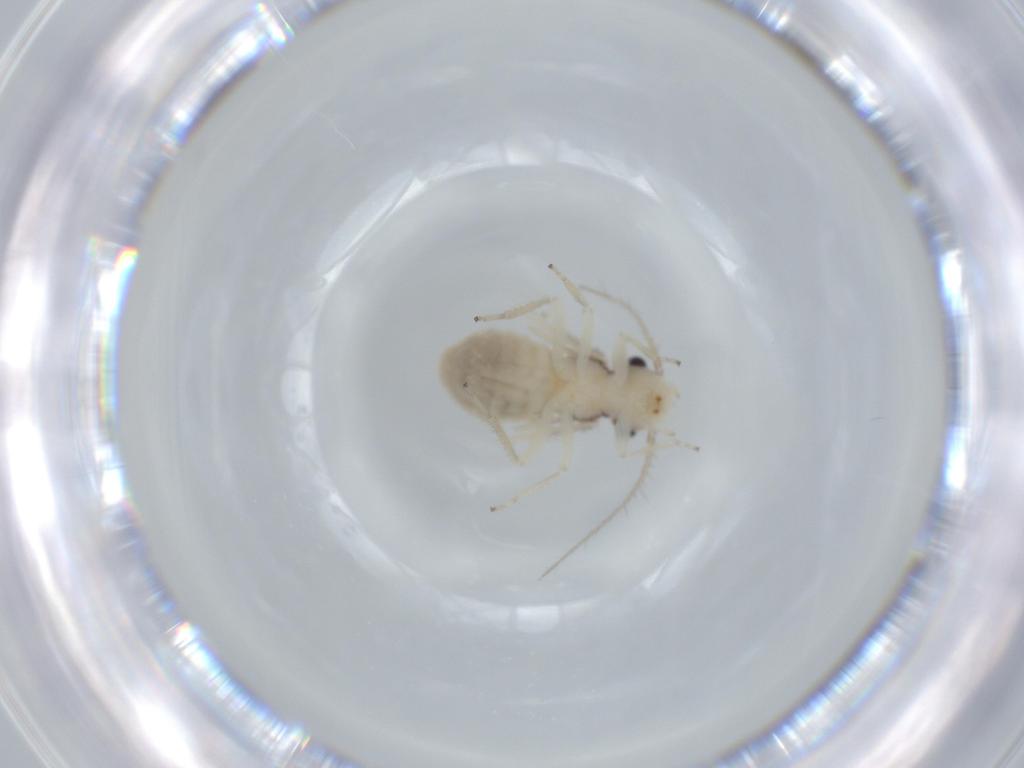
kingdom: Animalia
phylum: Arthropoda
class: Insecta
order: Psocodea
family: Pseudocaeciliidae
